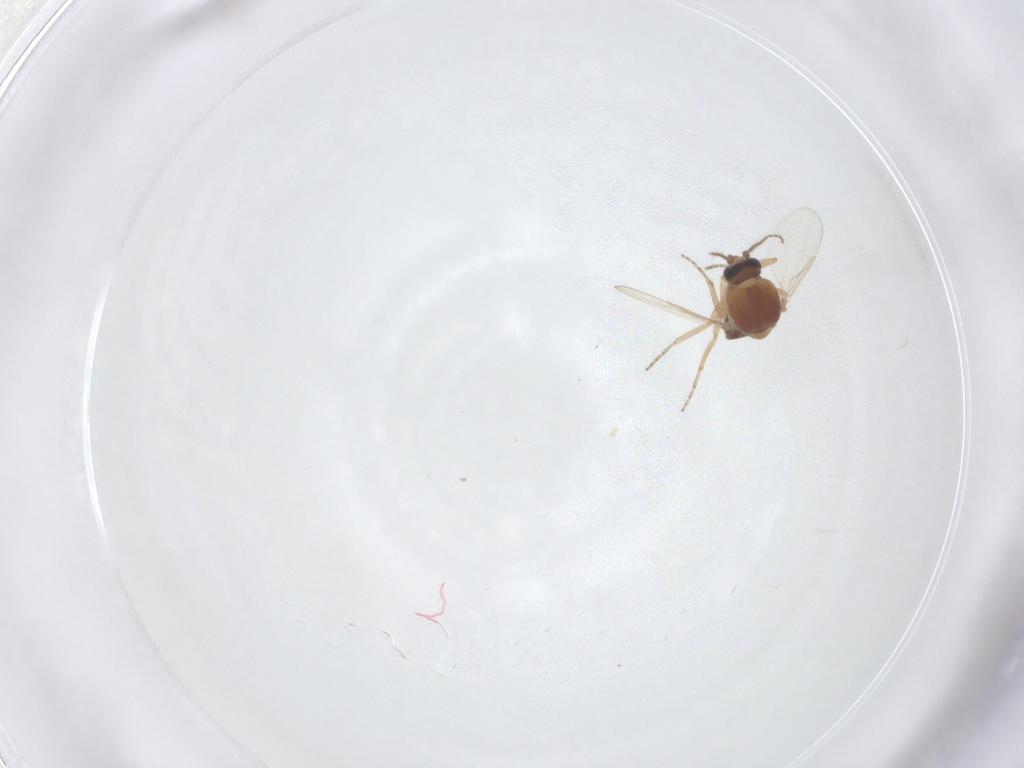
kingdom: Animalia
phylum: Arthropoda
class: Insecta
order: Diptera
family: Ceratopogonidae
